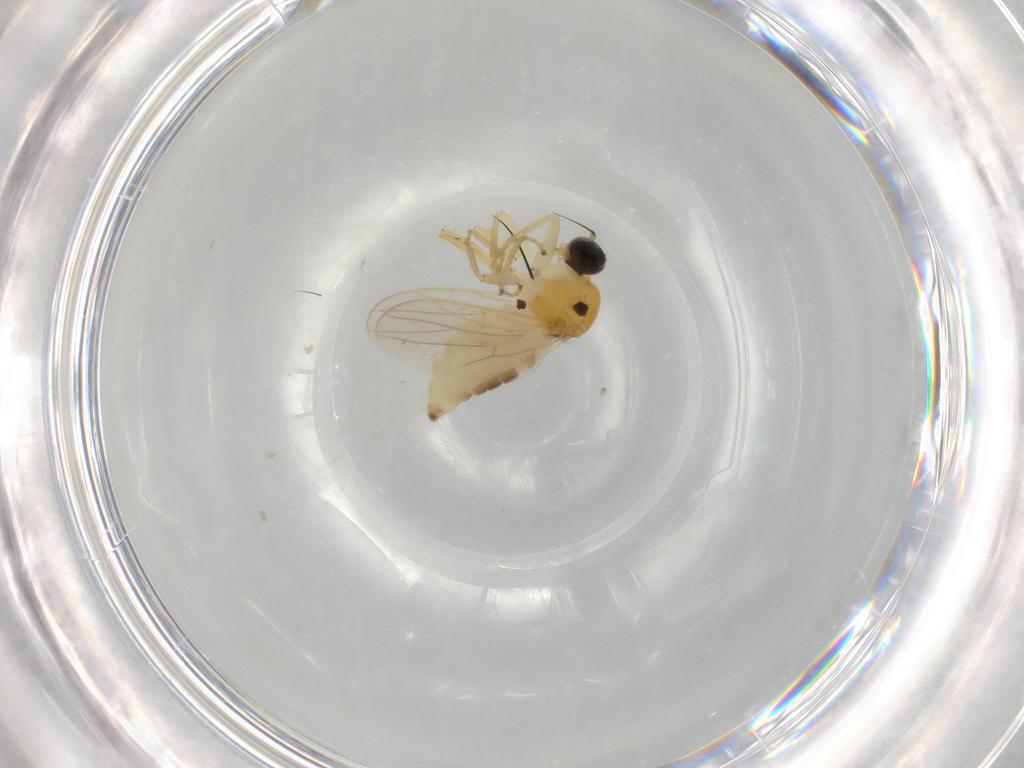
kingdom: Animalia
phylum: Arthropoda
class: Insecta
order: Diptera
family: Hybotidae
